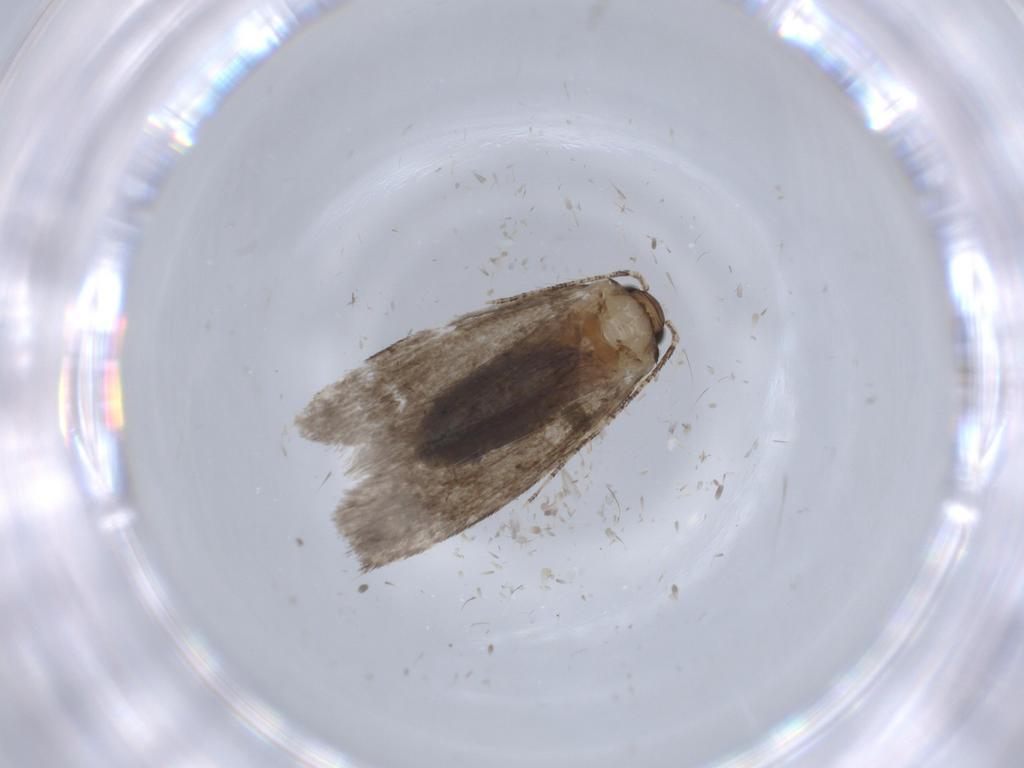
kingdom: Animalia
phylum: Arthropoda
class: Insecta
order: Lepidoptera
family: Tineidae
